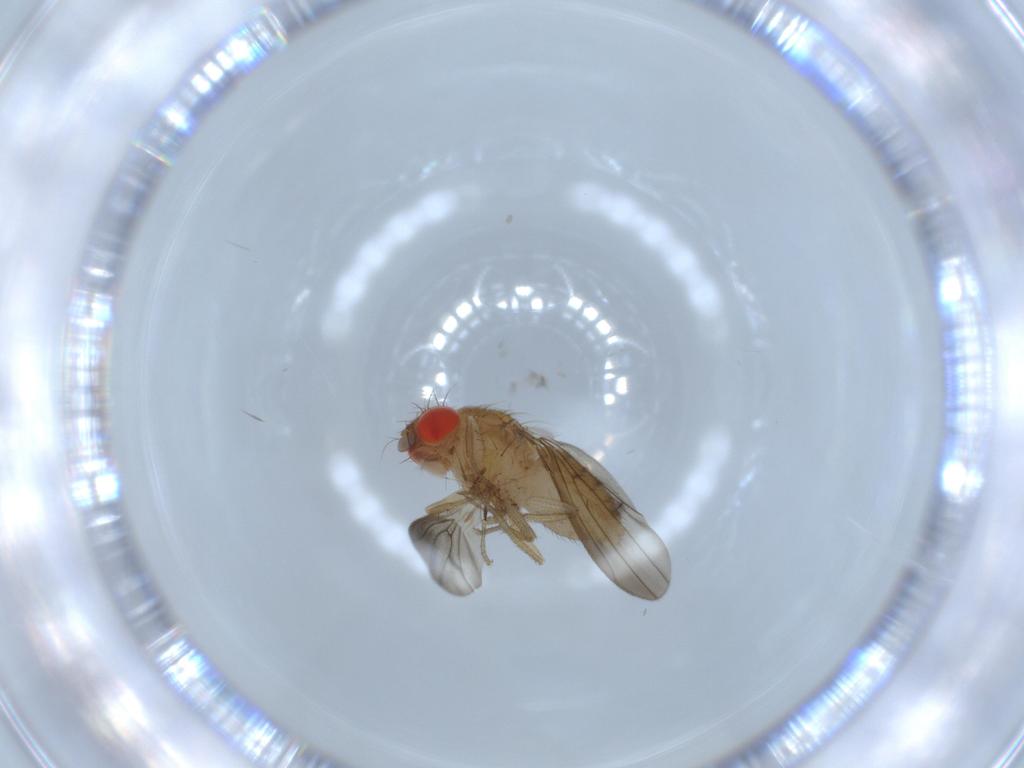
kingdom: Animalia
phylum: Arthropoda
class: Insecta
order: Diptera
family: Drosophilidae
